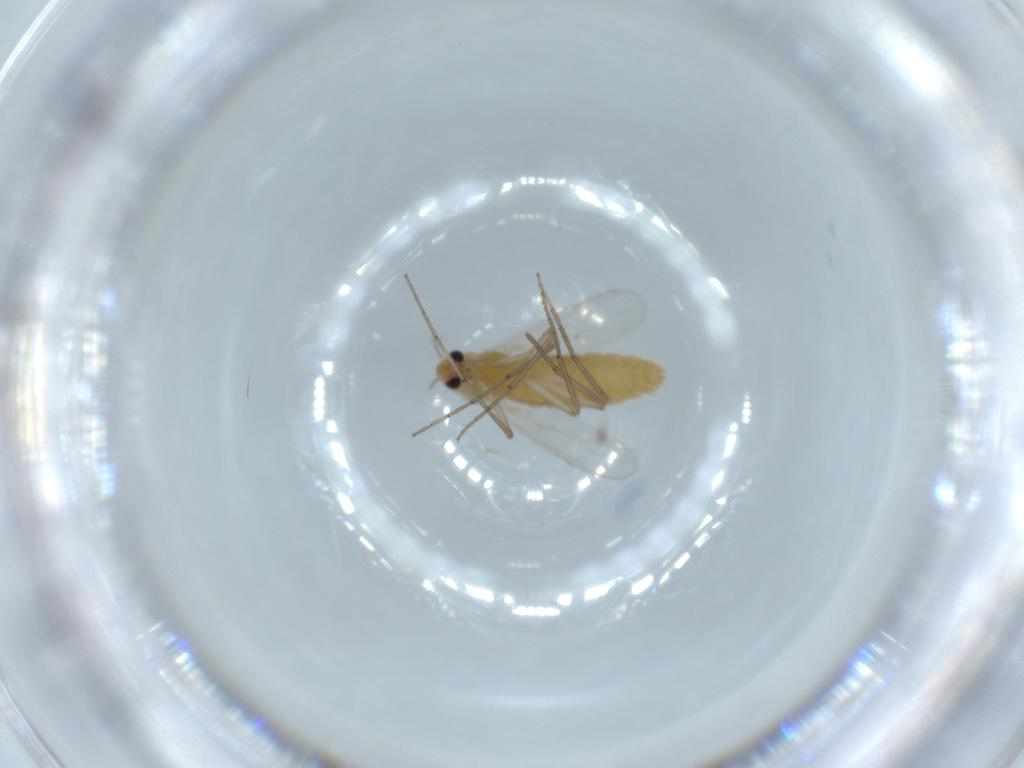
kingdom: Animalia
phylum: Arthropoda
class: Insecta
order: Diptera
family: Chironomidae
